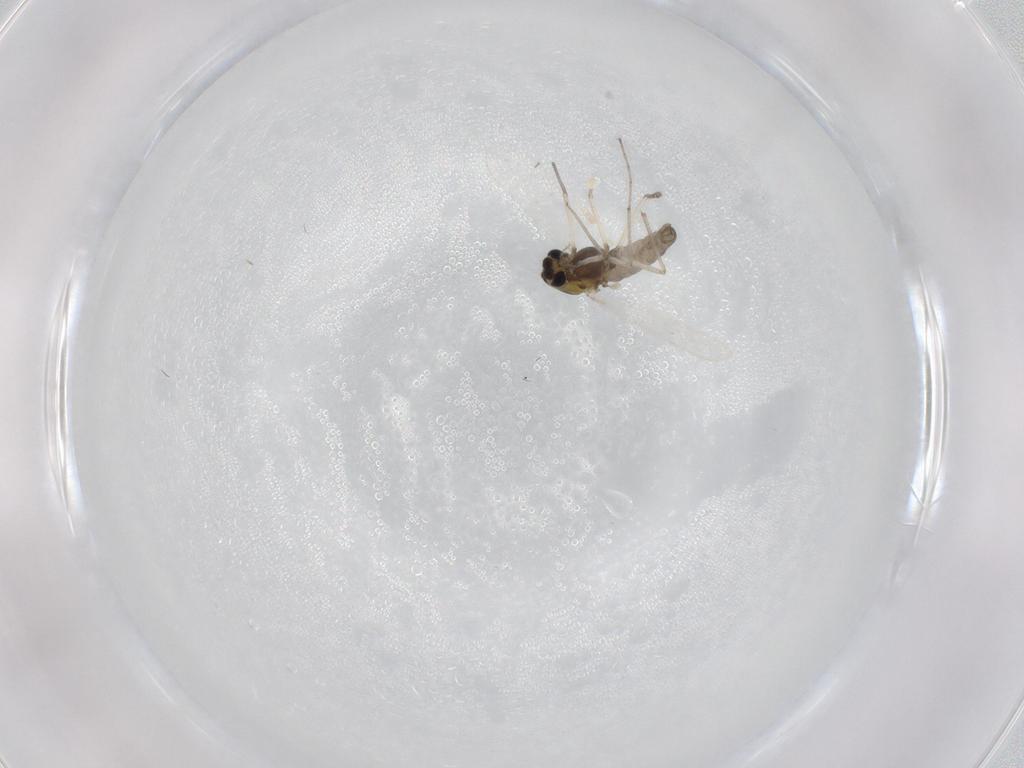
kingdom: Animalia
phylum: Arthropoda
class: Insecta
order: Diptera
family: Chironomidae
